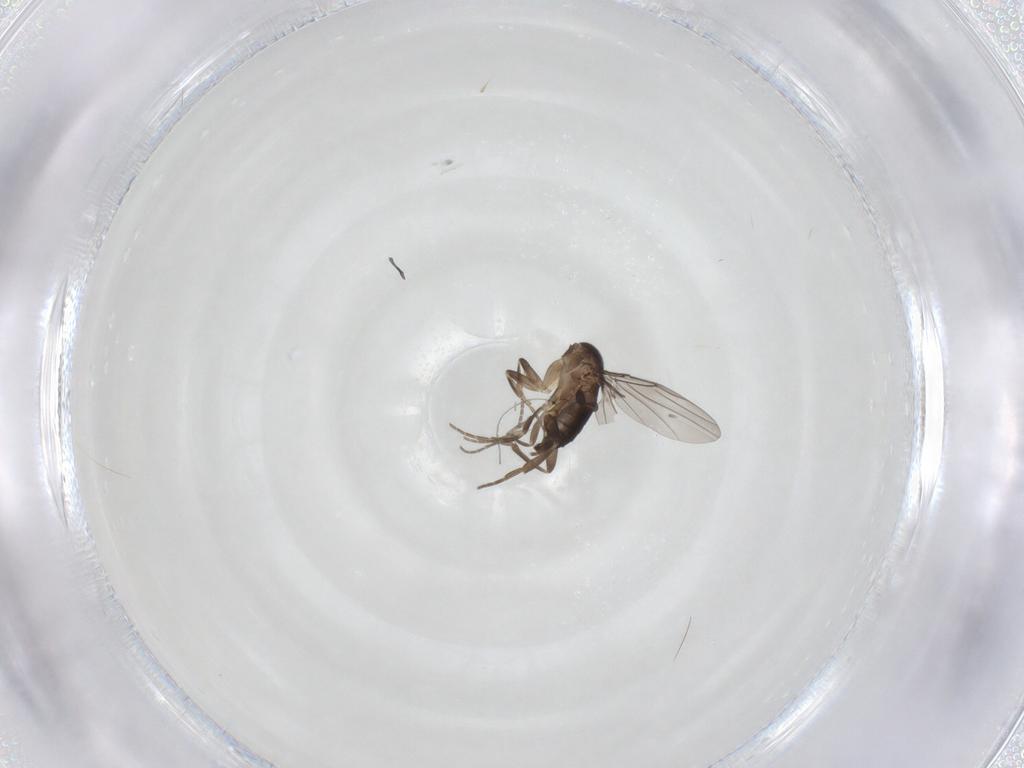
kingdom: Animalia
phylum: Arthropoda
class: Insecta
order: Diptera
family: Phoridae
